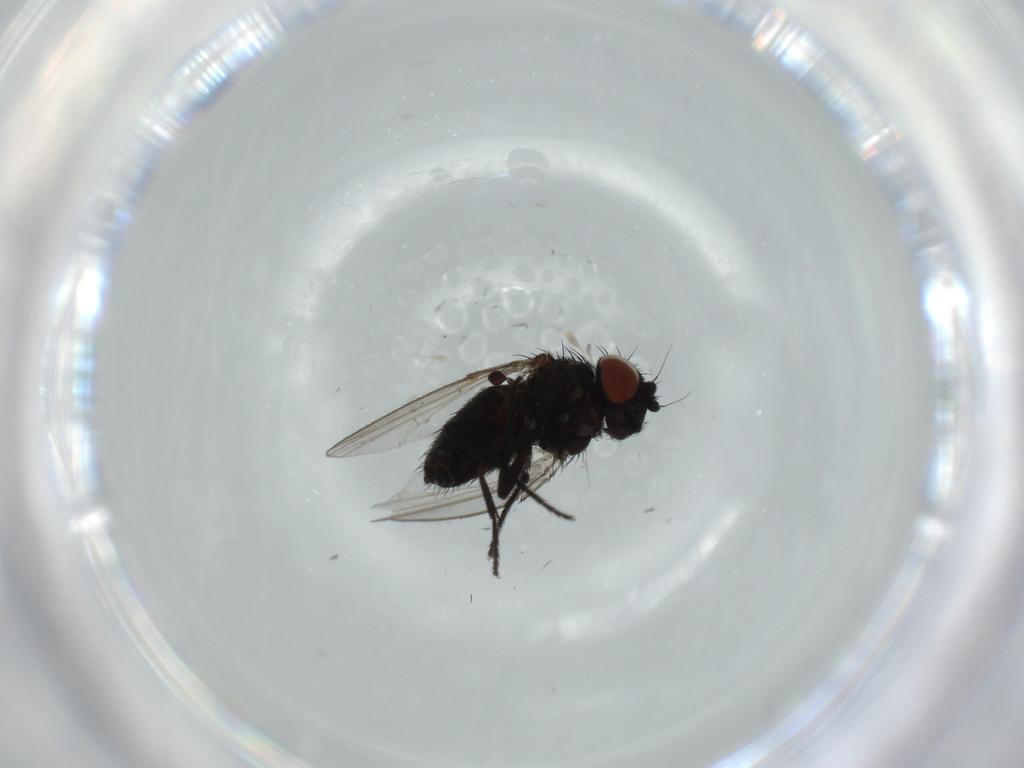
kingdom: Animalia
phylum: Arthropoda
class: Insecta
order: Diptera
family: Milichiidae
